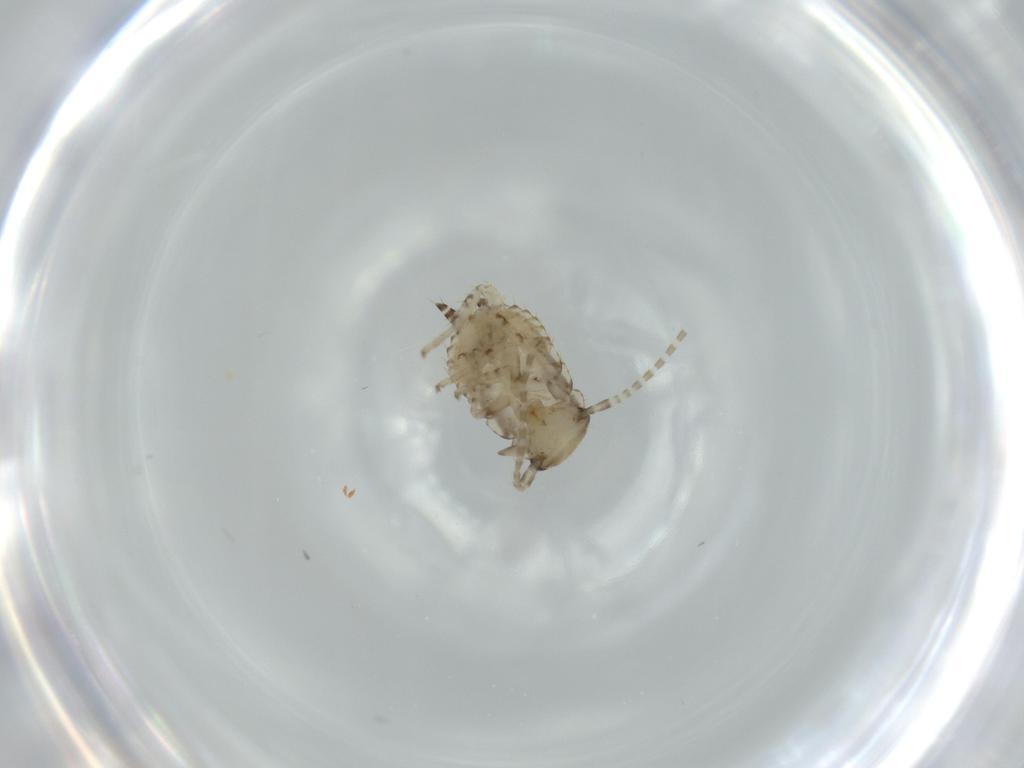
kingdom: Animalia
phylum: Arthropoda
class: Insecta
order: Blattodea
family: Ectobiidae
